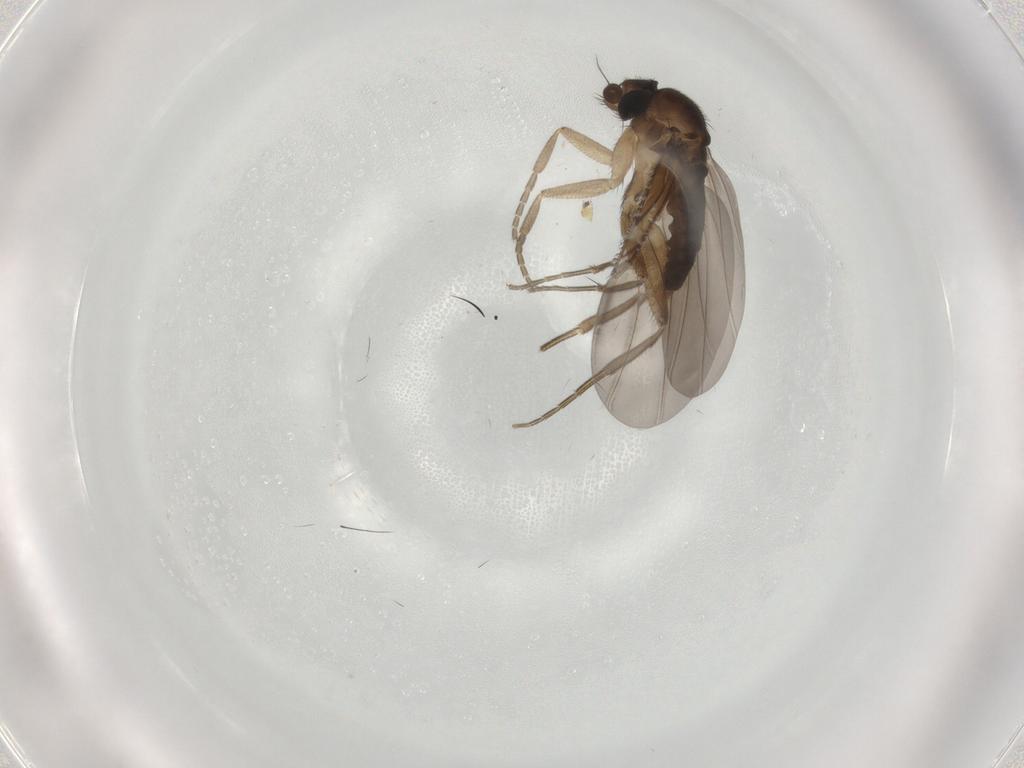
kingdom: Animalia
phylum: Arthropoda
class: Insecta
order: Diptera
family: Phoridae
